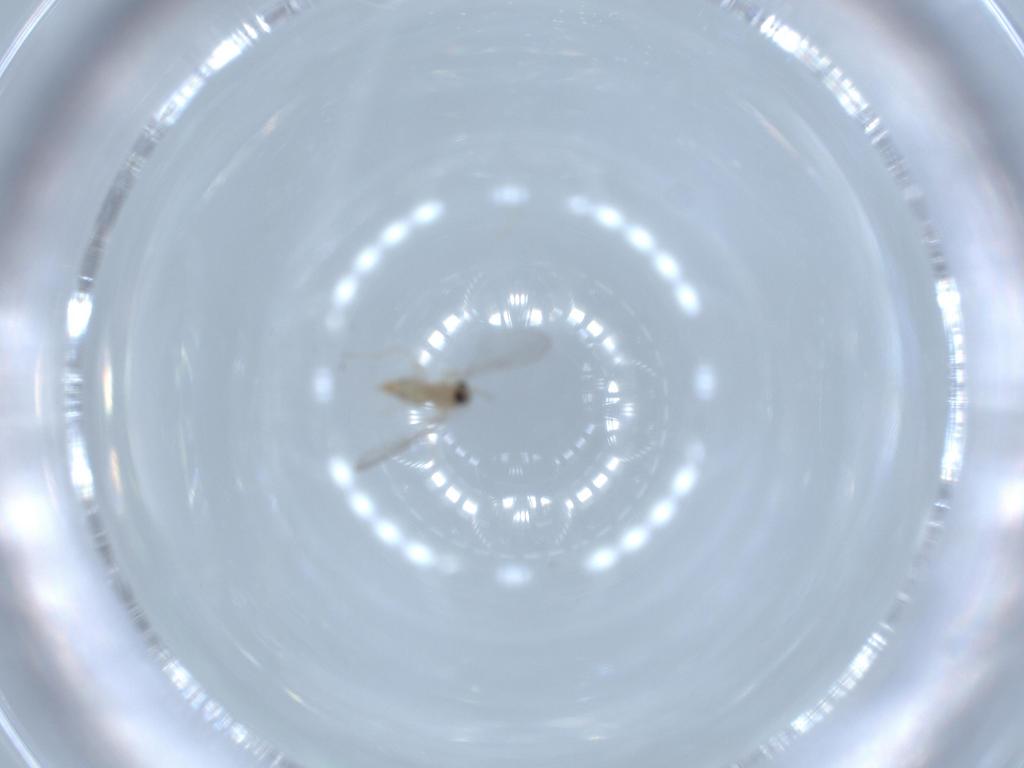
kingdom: Animalia
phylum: Arthropoda
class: Insecta
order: Diptera
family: Cecidomyiidae
